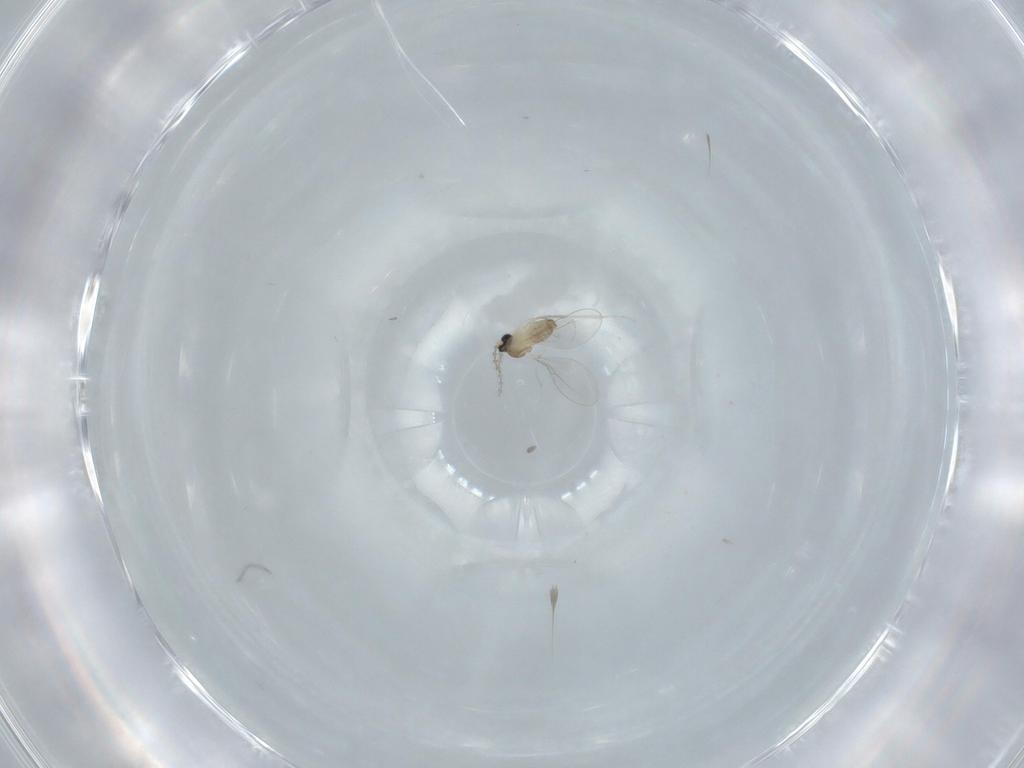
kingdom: Animalia
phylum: Arthropoda
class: Insecta
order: Diptera
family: Cecidomyiidae
